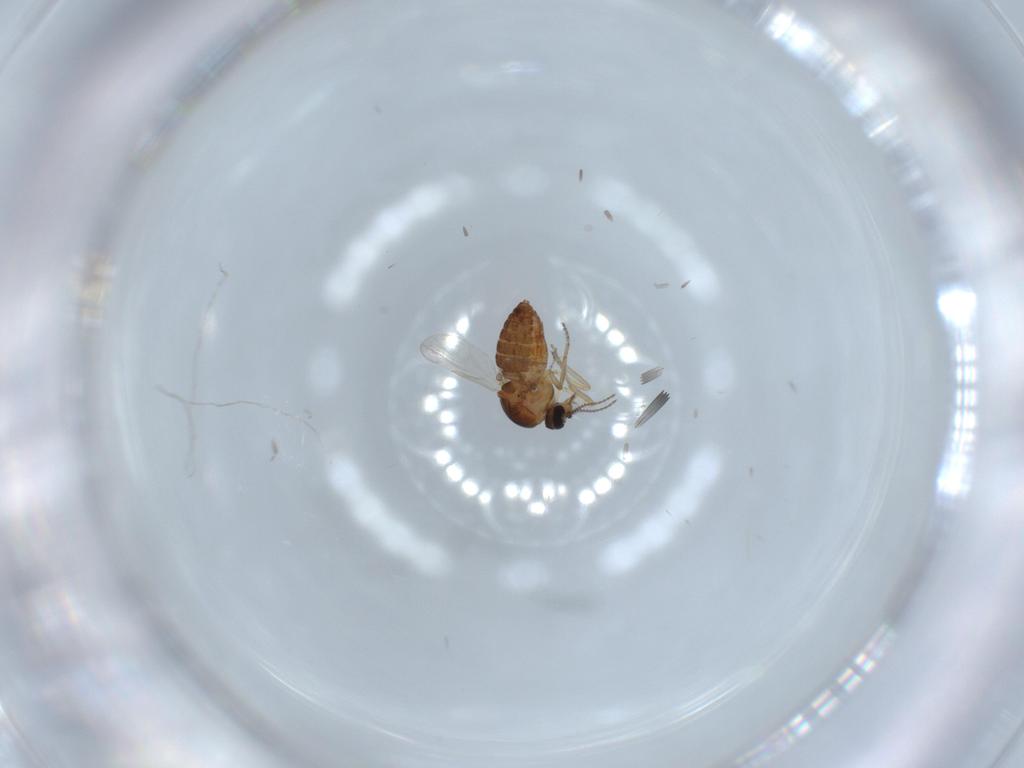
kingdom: Animalia
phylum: Arthropoda
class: Insecta
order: Diptera
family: Ceratopogonidae
